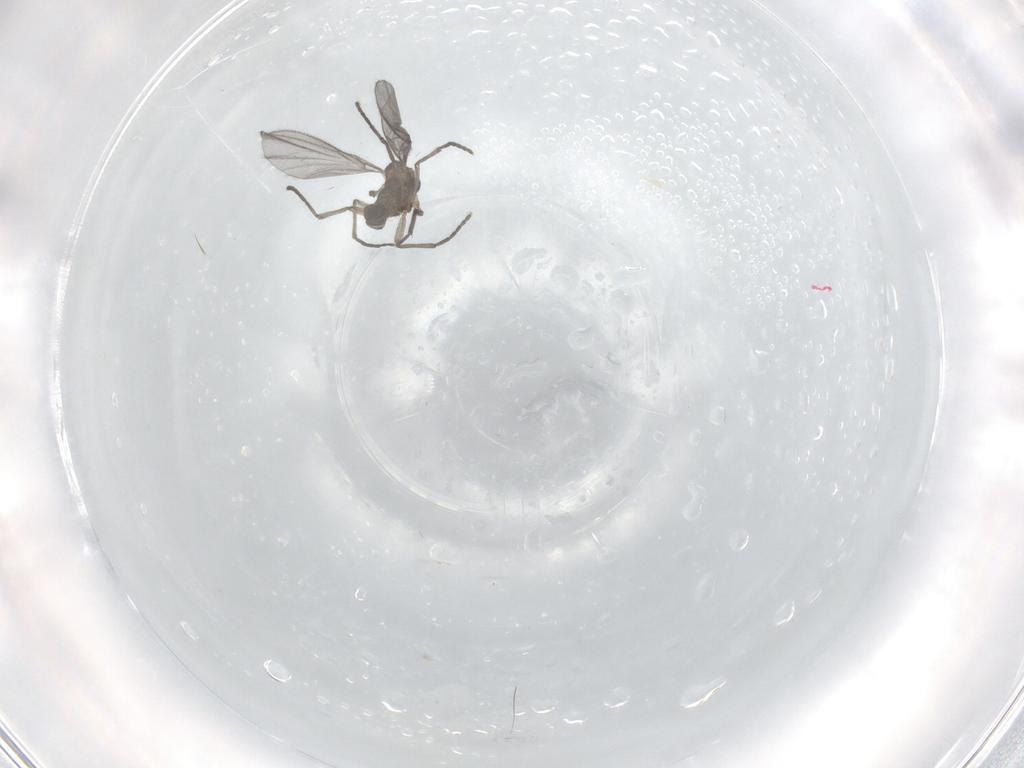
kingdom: Animalia
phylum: Arthropoda
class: Insecta
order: Diptera
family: Sciaridae
